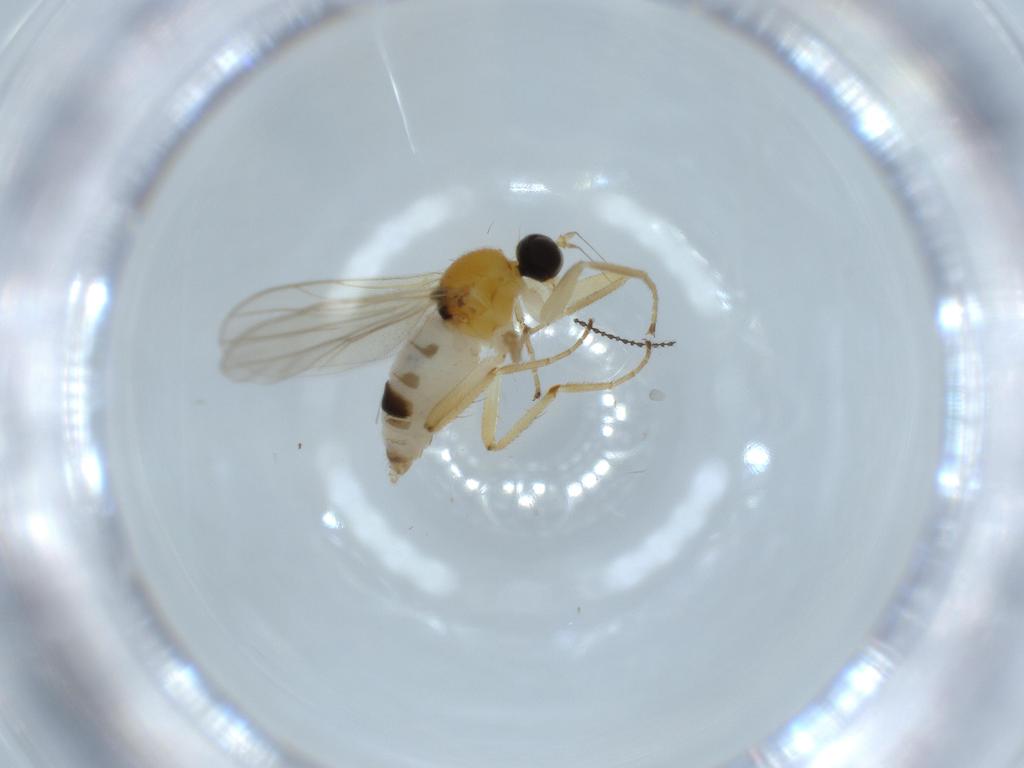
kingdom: Animalia
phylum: Arthropoda
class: Insecta
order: Diptera
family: Hybotidae
